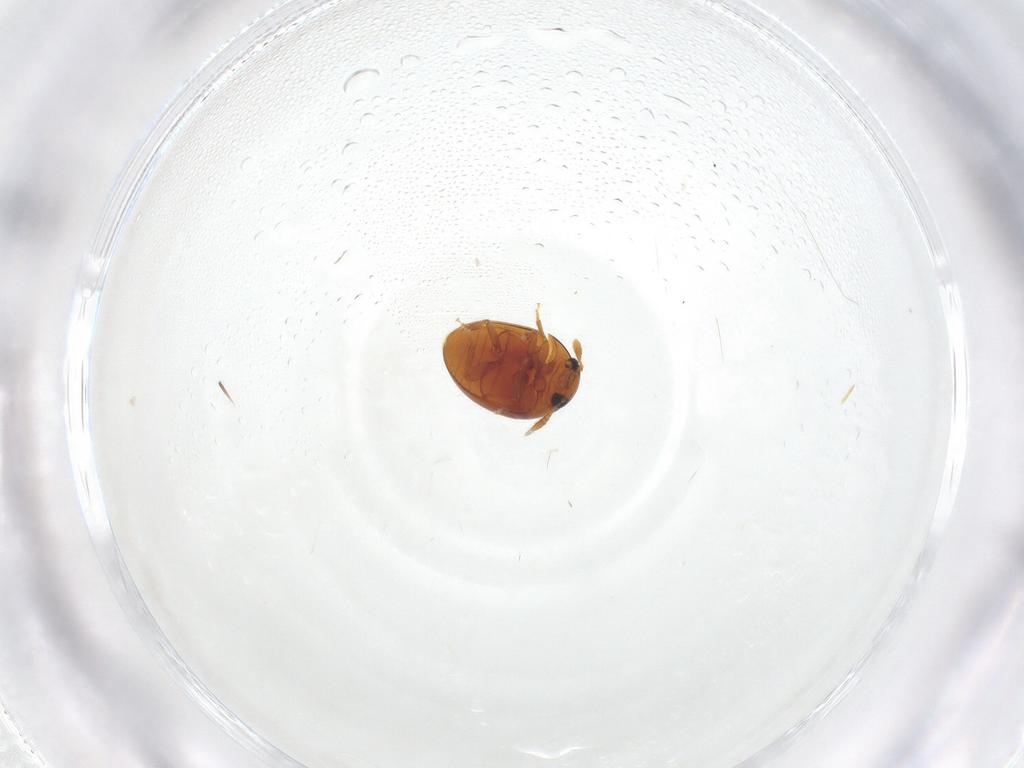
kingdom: Animalia
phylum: Arthropoda
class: Insecta
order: Coleoptera
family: Phalacridae
